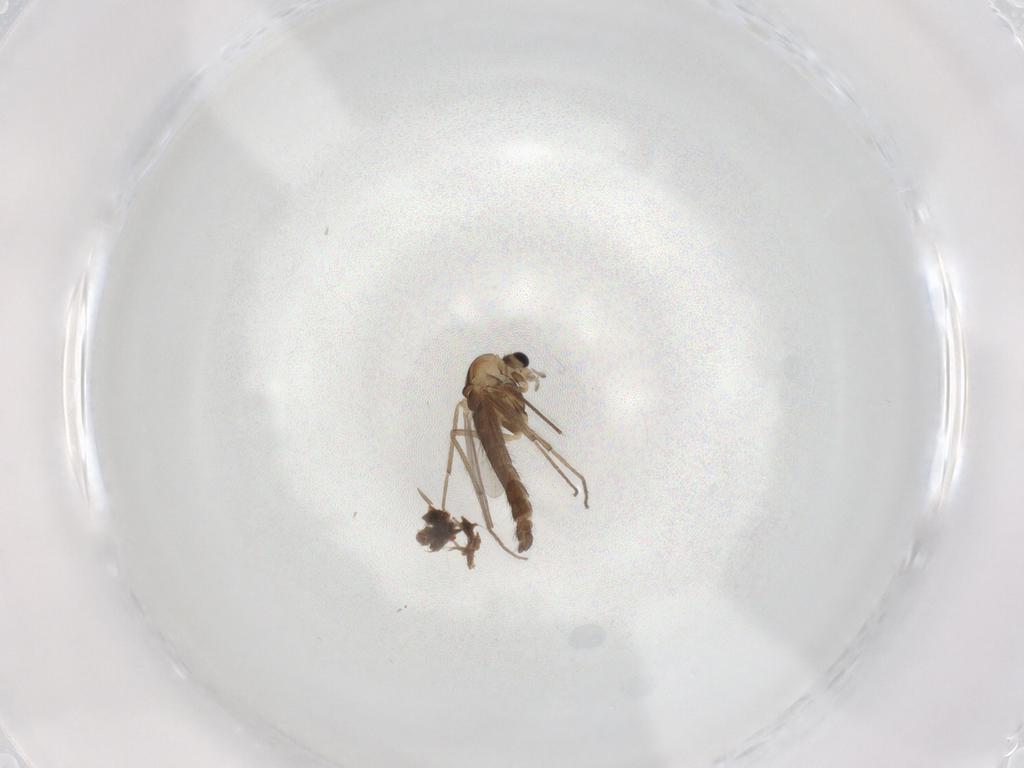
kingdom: Animalia
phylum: Arthropoda
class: Insecta
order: Diptera
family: Chironomidae
